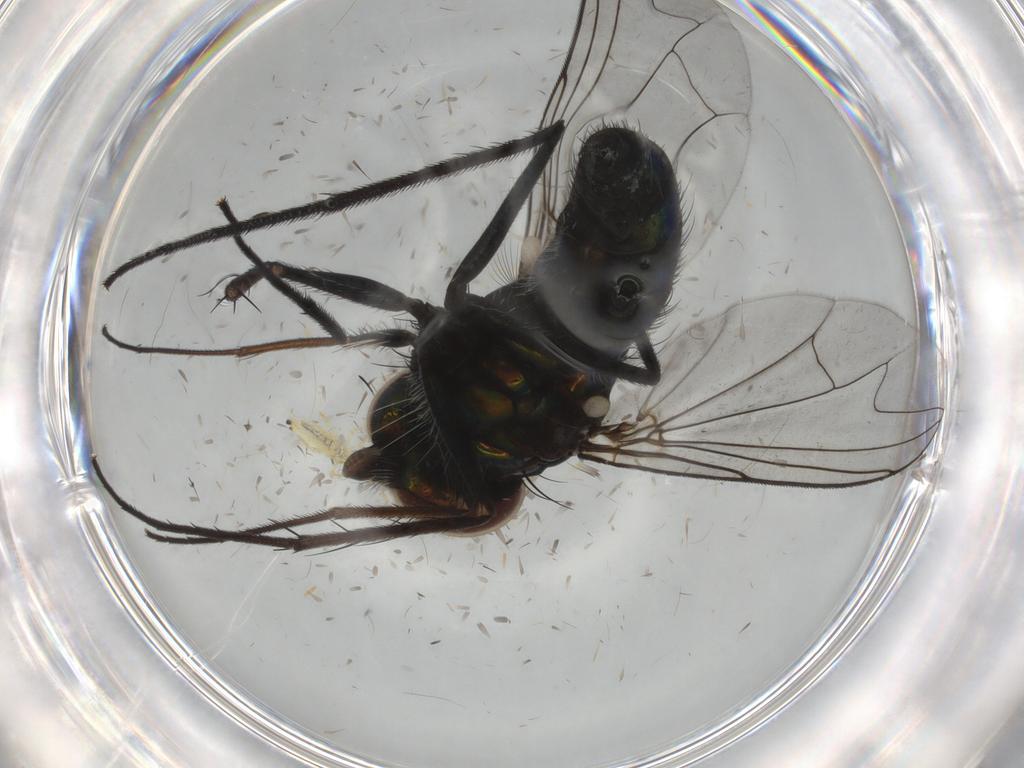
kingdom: Animalia
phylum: Arthropoda
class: Insecta
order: Diptera
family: Dolichopodidae
